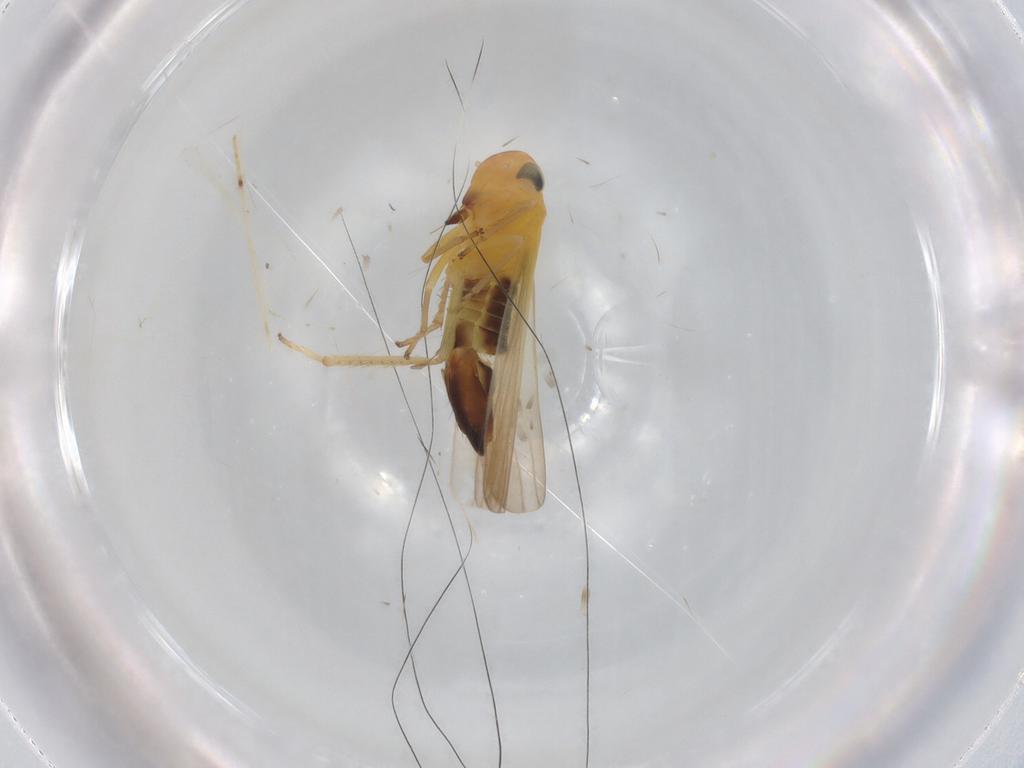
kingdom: Animalia
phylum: Arthropoda
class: Insecta
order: Hemiptera
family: Cicadellidae
